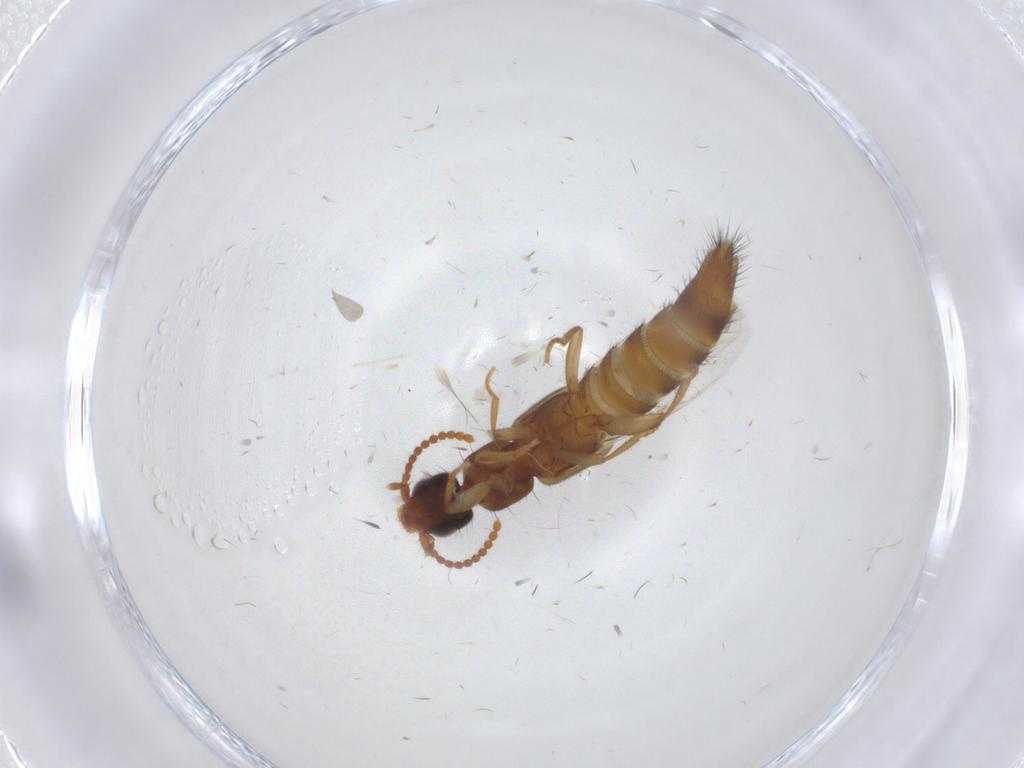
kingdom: Animalia
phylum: Arthropoda
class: Insecta
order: Coleoptera
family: Staphylinidae
